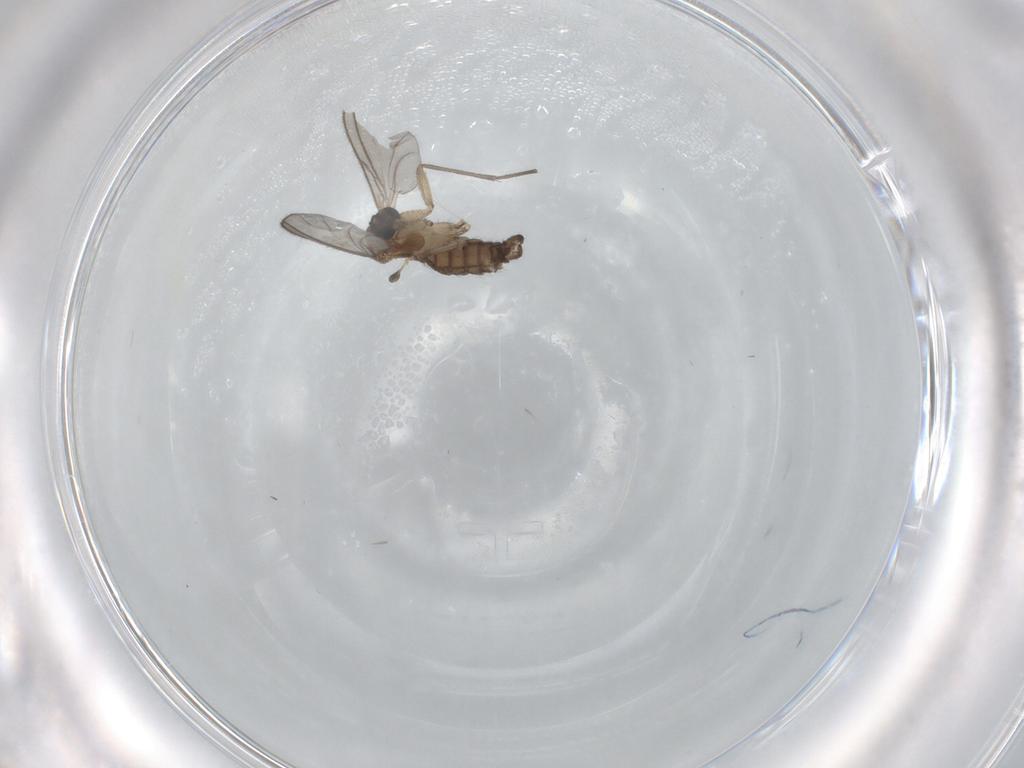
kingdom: Animalia
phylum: Arthropoda
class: Insecta
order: Diptera
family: Sciaridae
